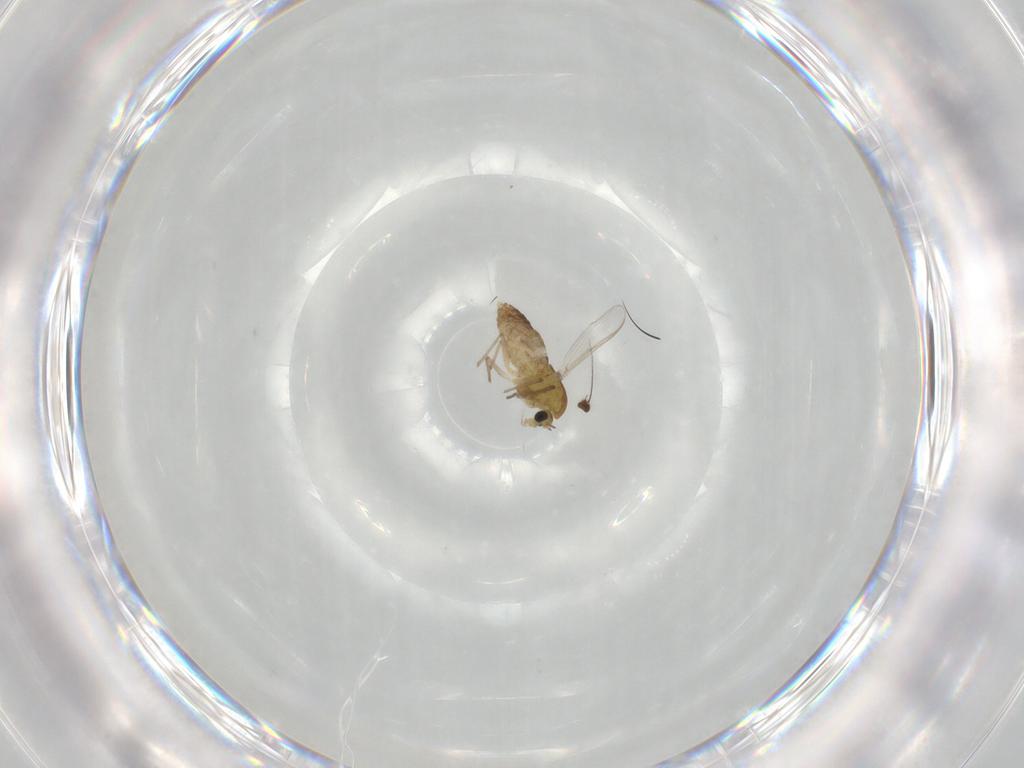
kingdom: Animalia
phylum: Arthropoda
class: Insecta
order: Diptera
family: Chironomidae
